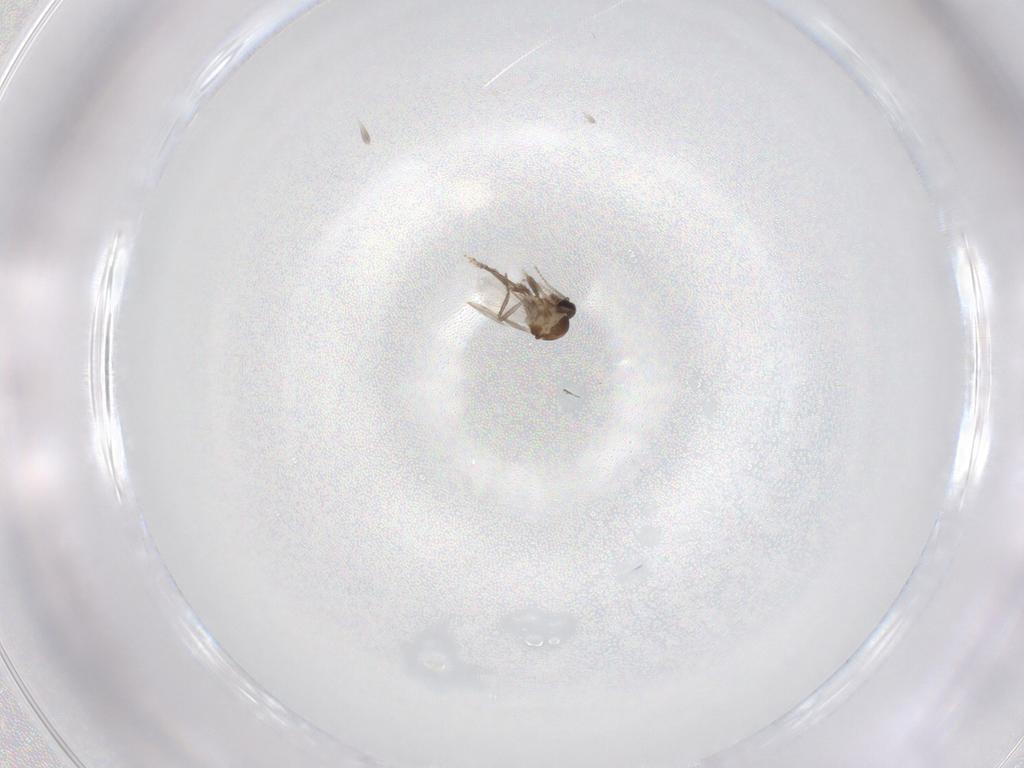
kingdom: Animalia
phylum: Arthropoda
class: Insecta
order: Diptera
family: Ceratopogonidae
